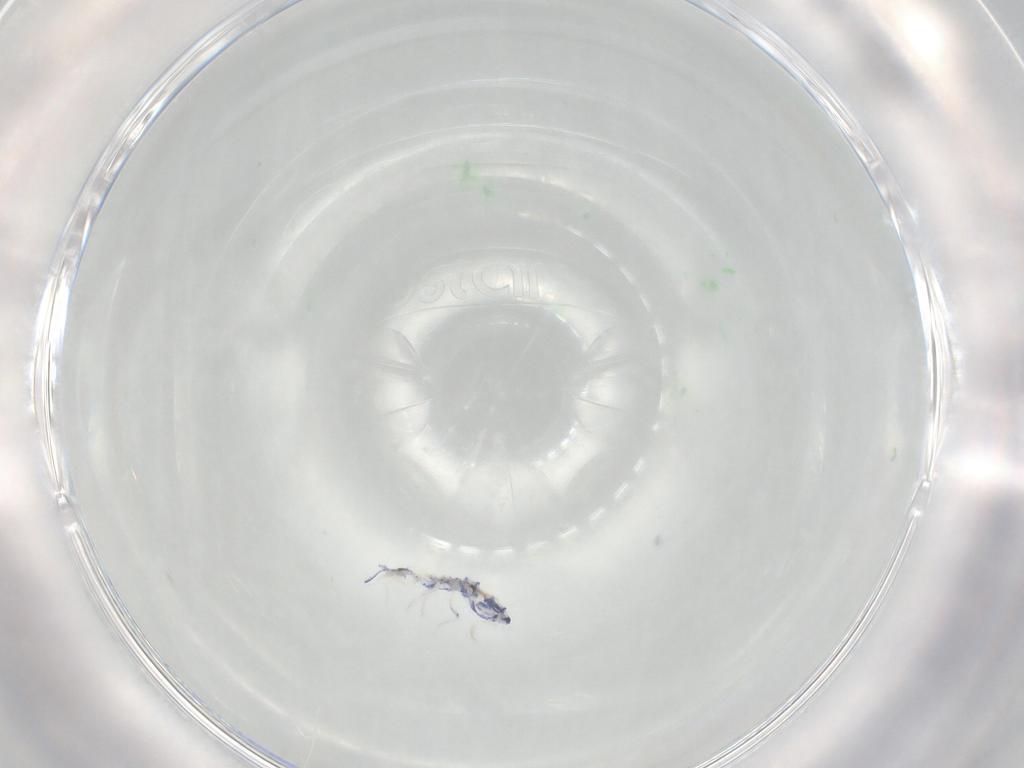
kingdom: Animalia
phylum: Arthropoda
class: Collembola
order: Entomobryomorpha
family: Entomobryidae
